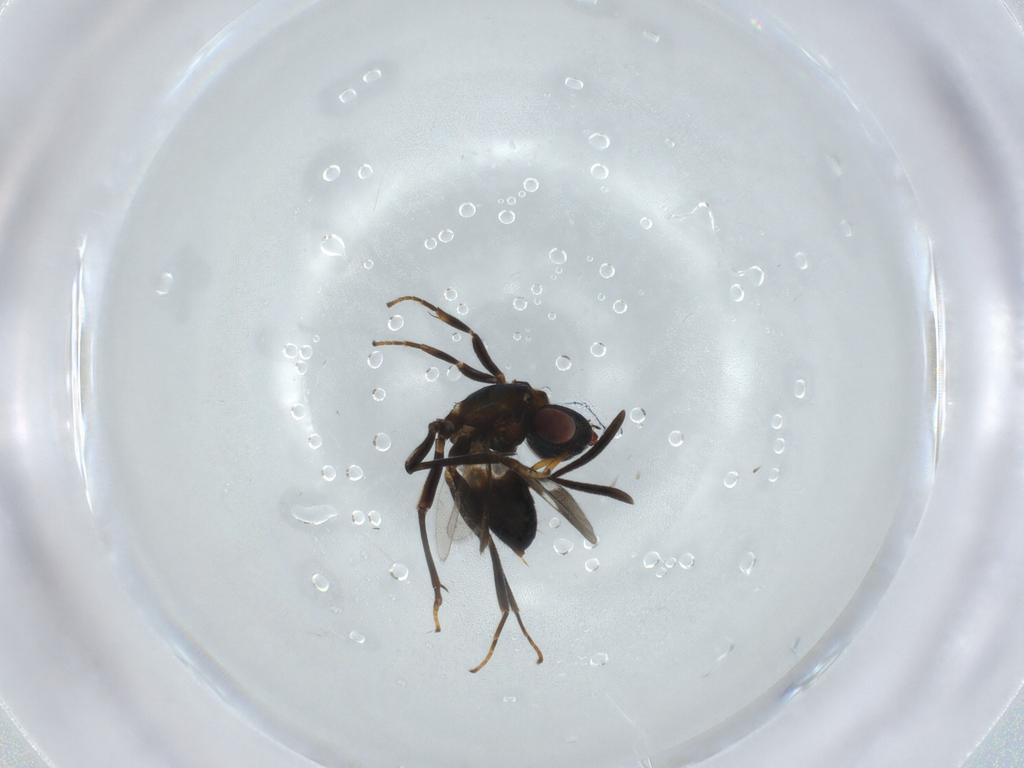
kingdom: Animalia
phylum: Arthropoda
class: Insecta
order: Hymenoptera
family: Eupelmidae
